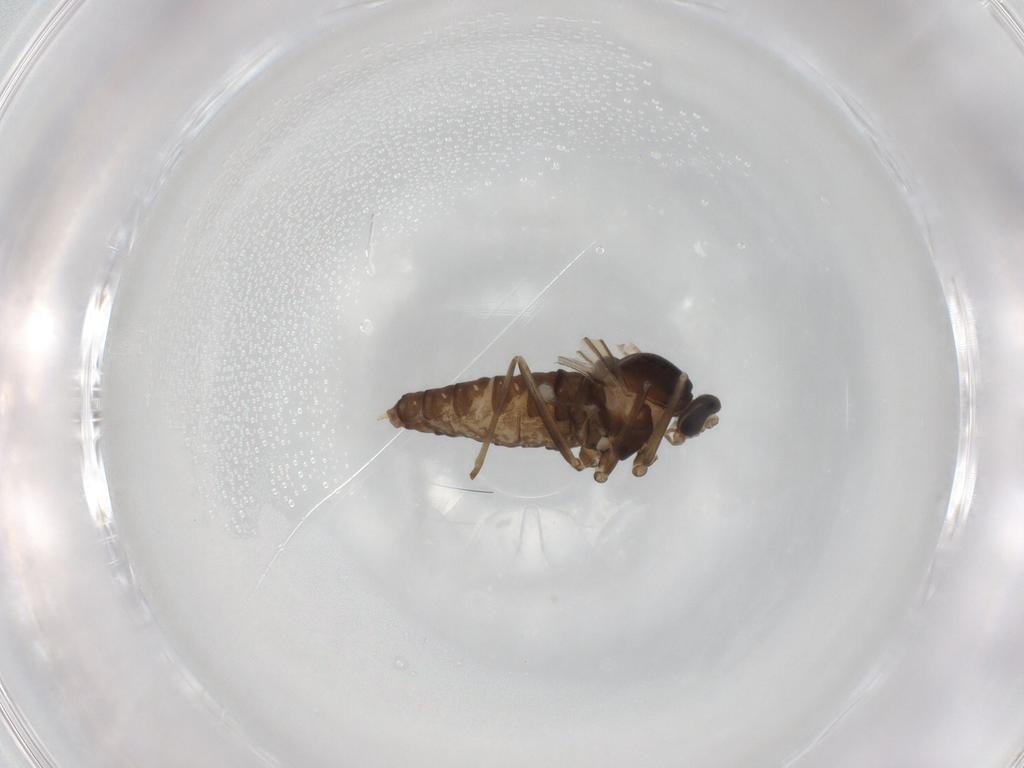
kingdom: Animalia
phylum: Arthropoda
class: Insecta
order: Diptera
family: Cecidomyiidae
